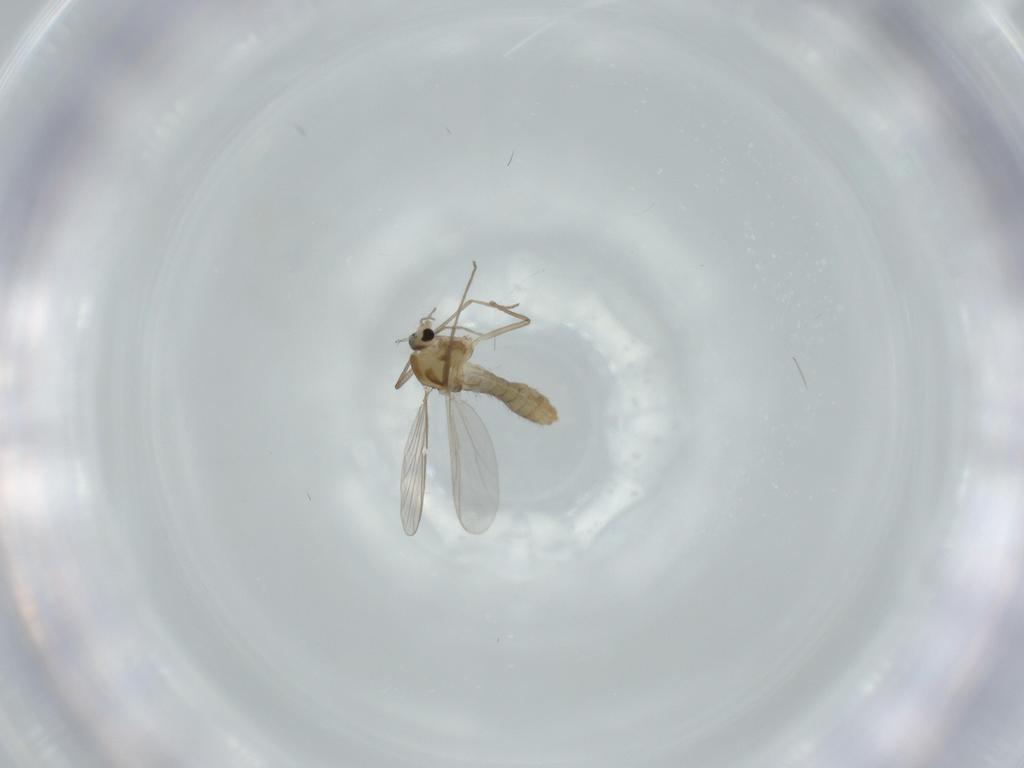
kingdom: Animalia
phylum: Arthropoda
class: Insecta
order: Diptera
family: Chironomidae
